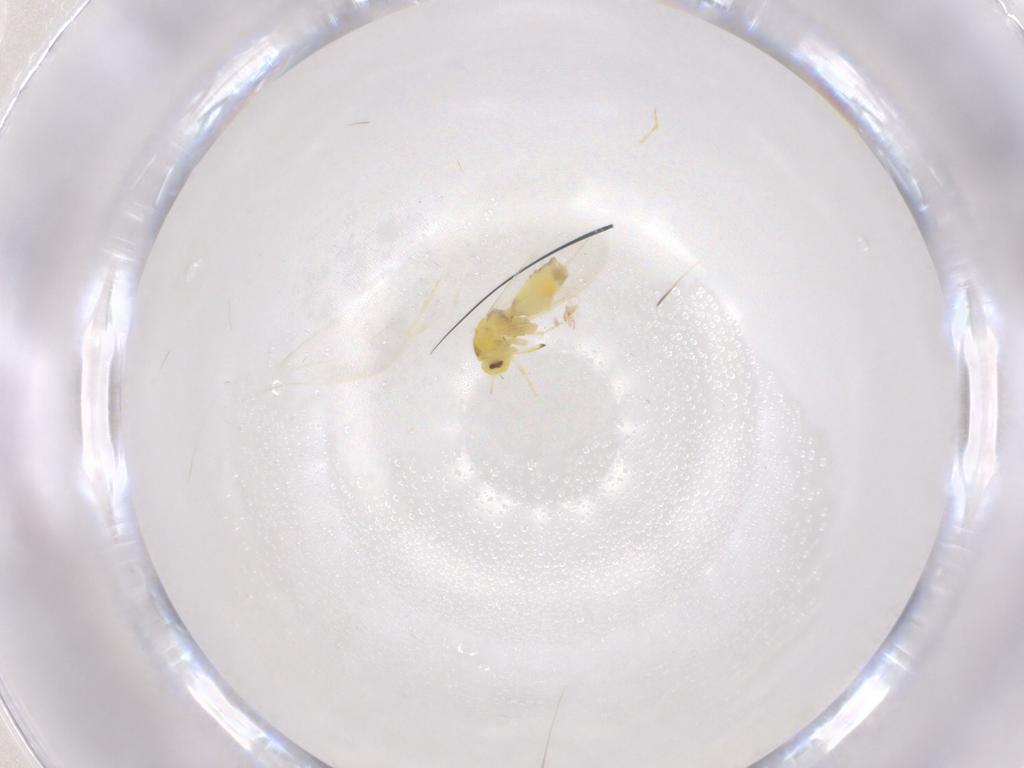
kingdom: Animalia
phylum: Arthropoda
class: Insecta
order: Hemiptera
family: Aleyrodidae
